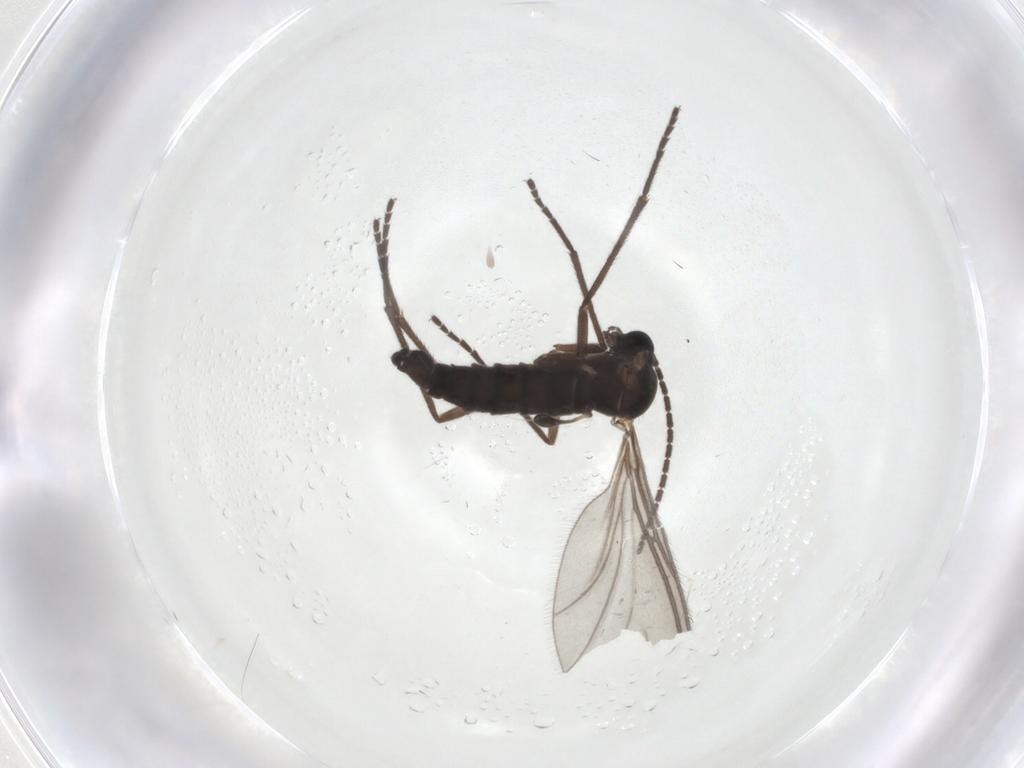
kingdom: Animalia
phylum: Arthropoda
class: Insecta
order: Diptera
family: Sciaridae
